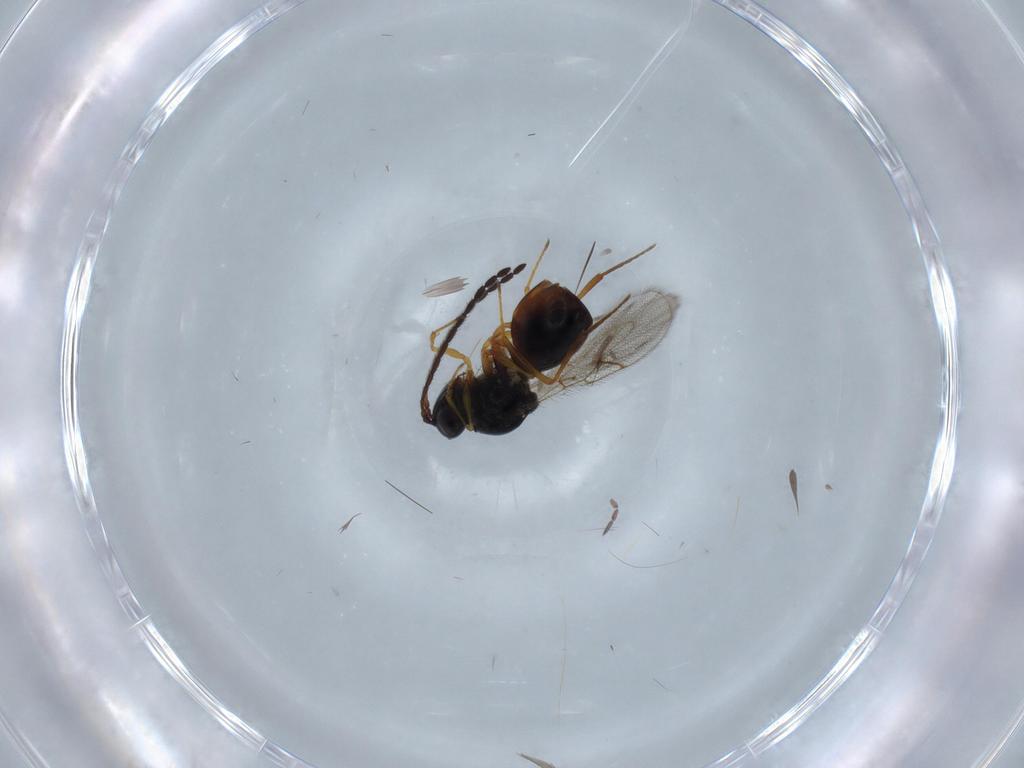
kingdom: Animalia
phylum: Arthropoda
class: Insecta
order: Hymenoptera
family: Figitidae
